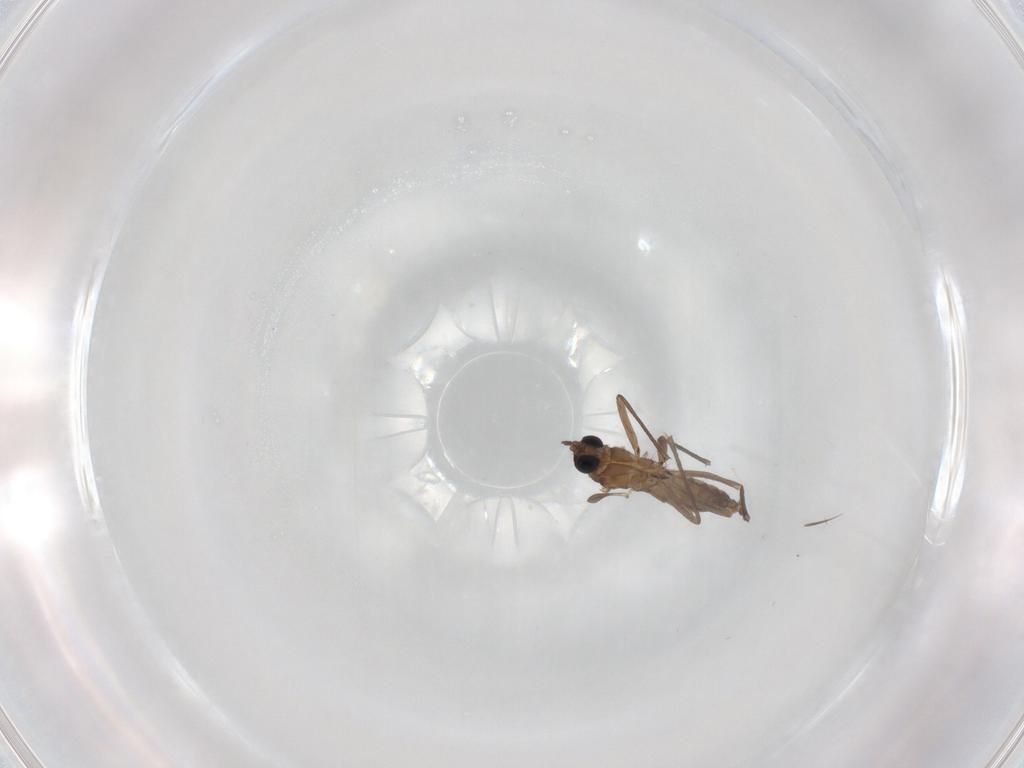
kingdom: Animalia
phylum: Arthropoda
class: Insecta
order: Diptera
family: Sciaridae
